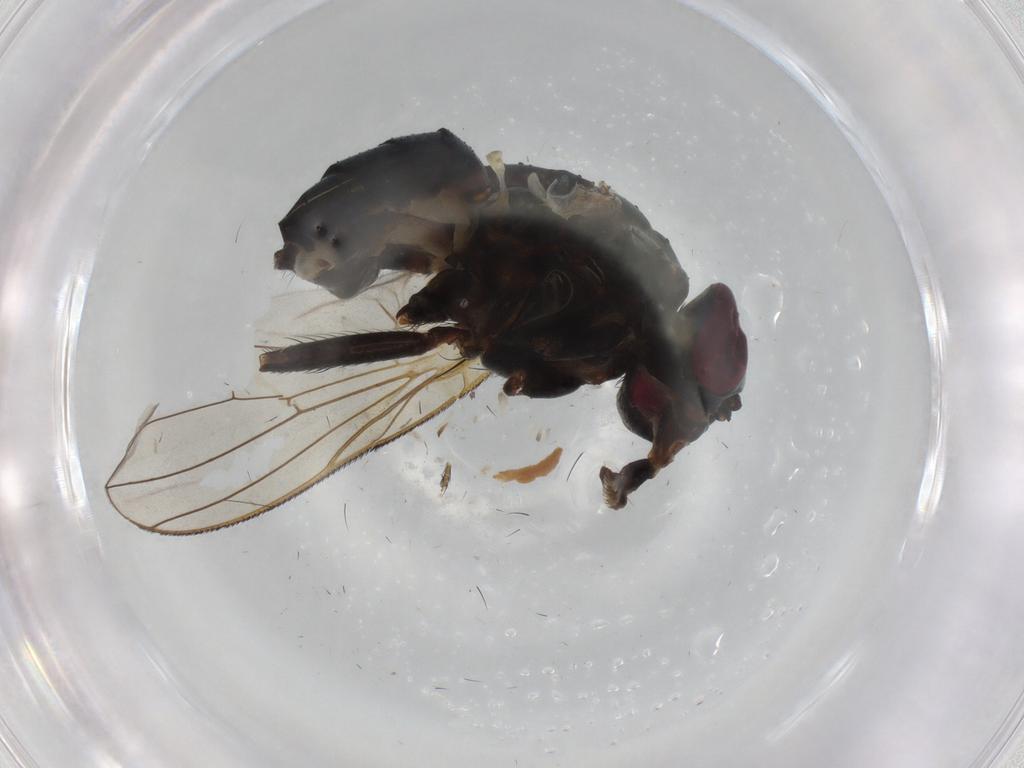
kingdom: Animalia
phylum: Arthropoda
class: Insecta
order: Diptera
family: Fannia
